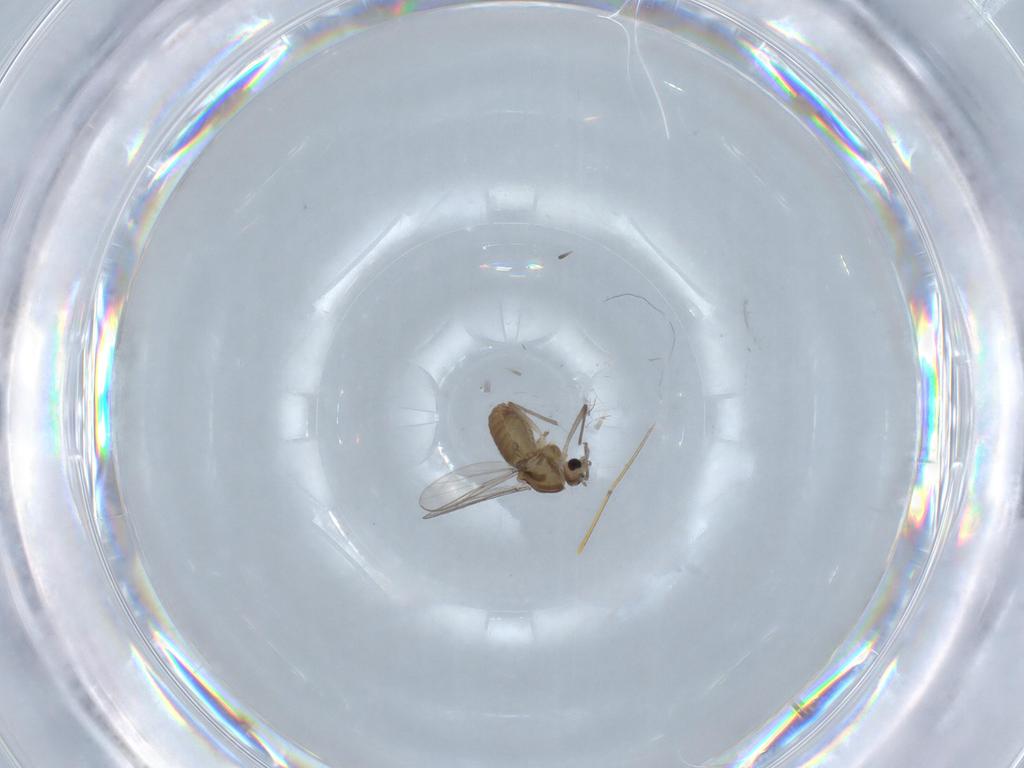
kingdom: Animalia
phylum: Arthropoda
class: Insecta
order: Diptera
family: Chironomidae
